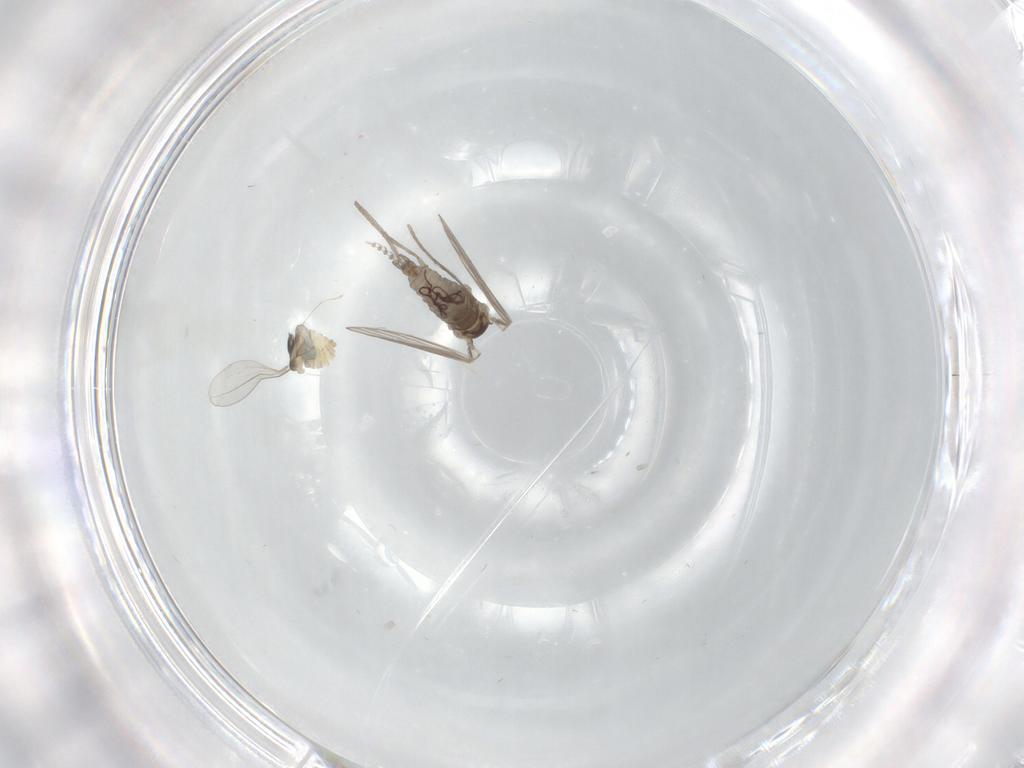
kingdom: Animalia
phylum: Arthropoda
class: Insecta
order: Diptera
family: Psychodidae
